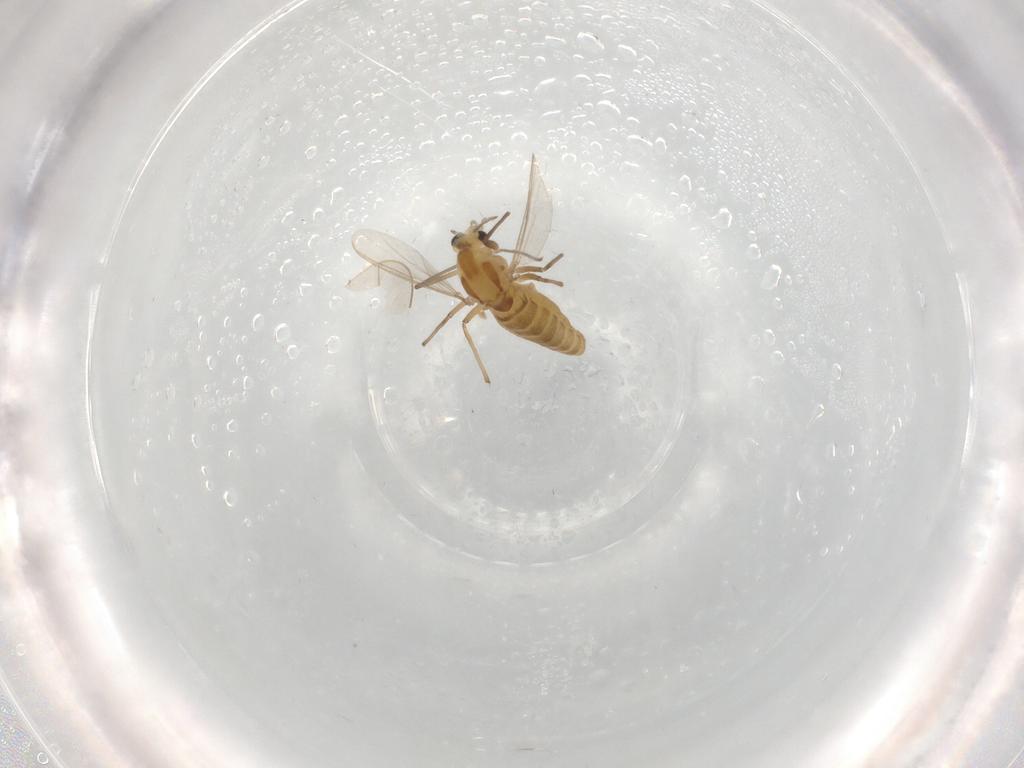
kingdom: Animalia
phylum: Arthropoda
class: Insecta
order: Diptera
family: Chironomidae
